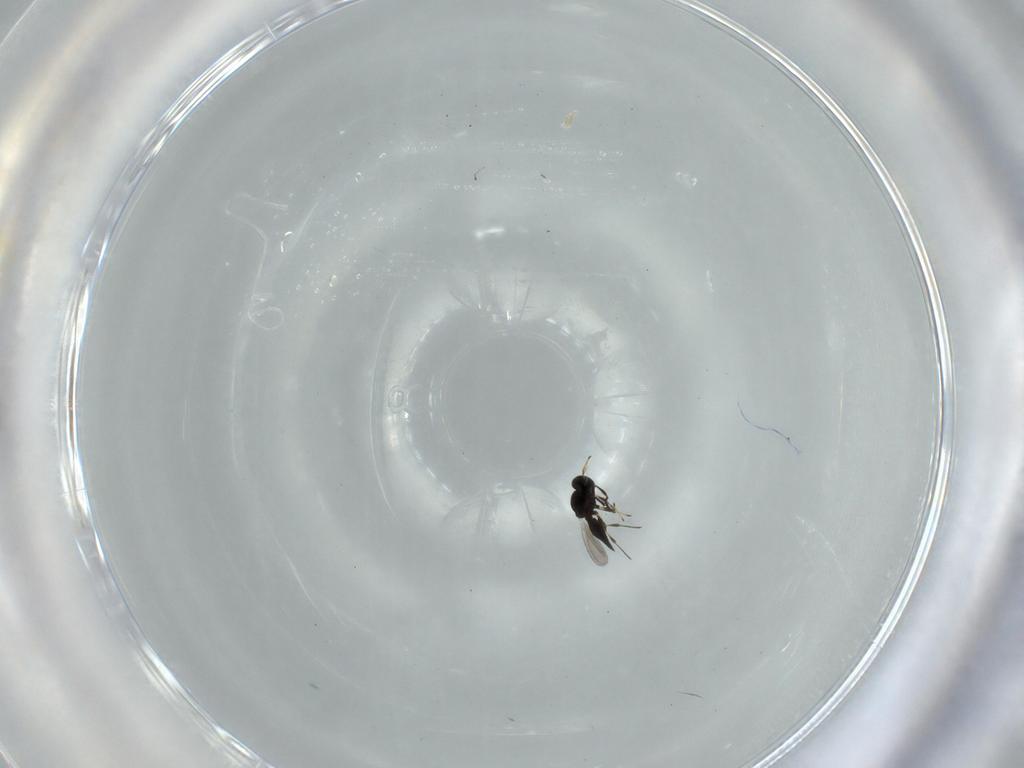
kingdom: Animalia
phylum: Arthropoda
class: Insecta
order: Hymenoptera
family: Platygastridae
